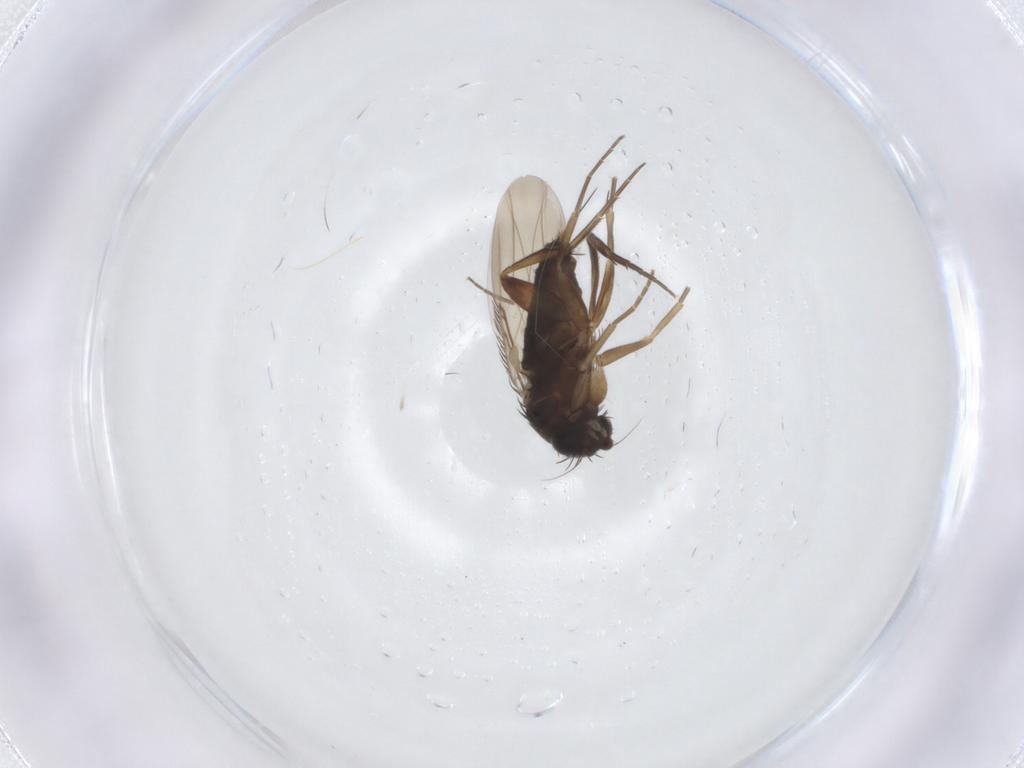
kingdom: Animalia
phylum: Arthropoda
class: Insecta
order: Diptera
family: Phoridae
